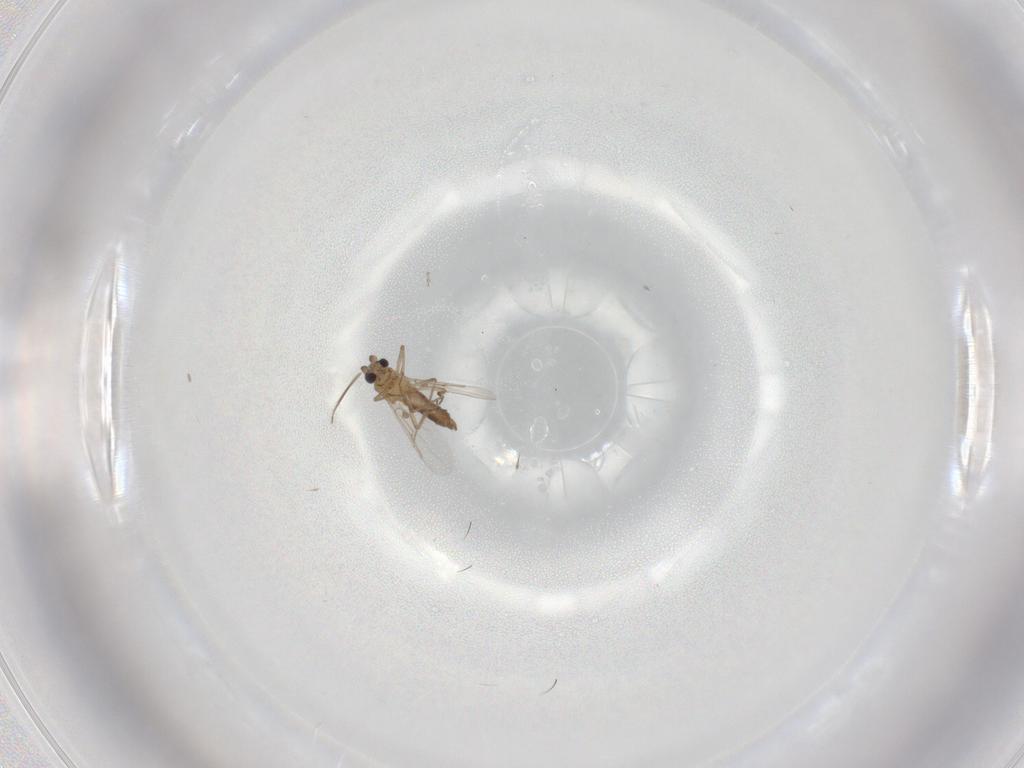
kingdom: Animalia
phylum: Arthropoda
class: Insecta
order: Diptera
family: Ceratopogonidae
